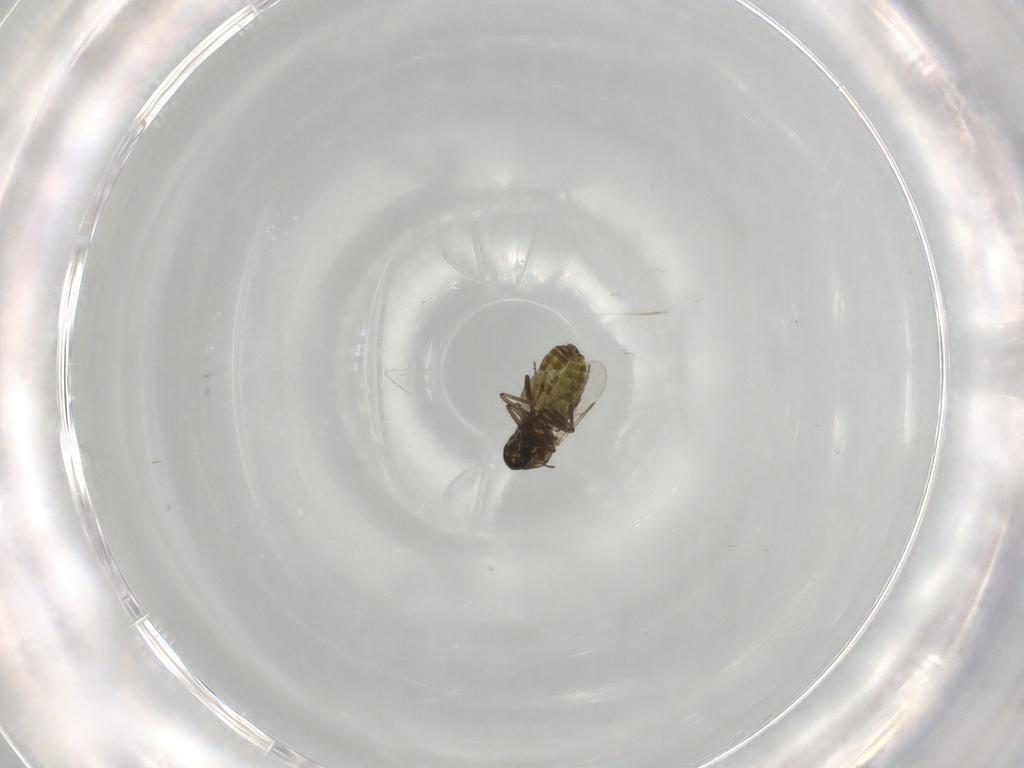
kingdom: Animalia
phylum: Arthropoda
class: Insecta
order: Diptera
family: Ceratopogonidae
